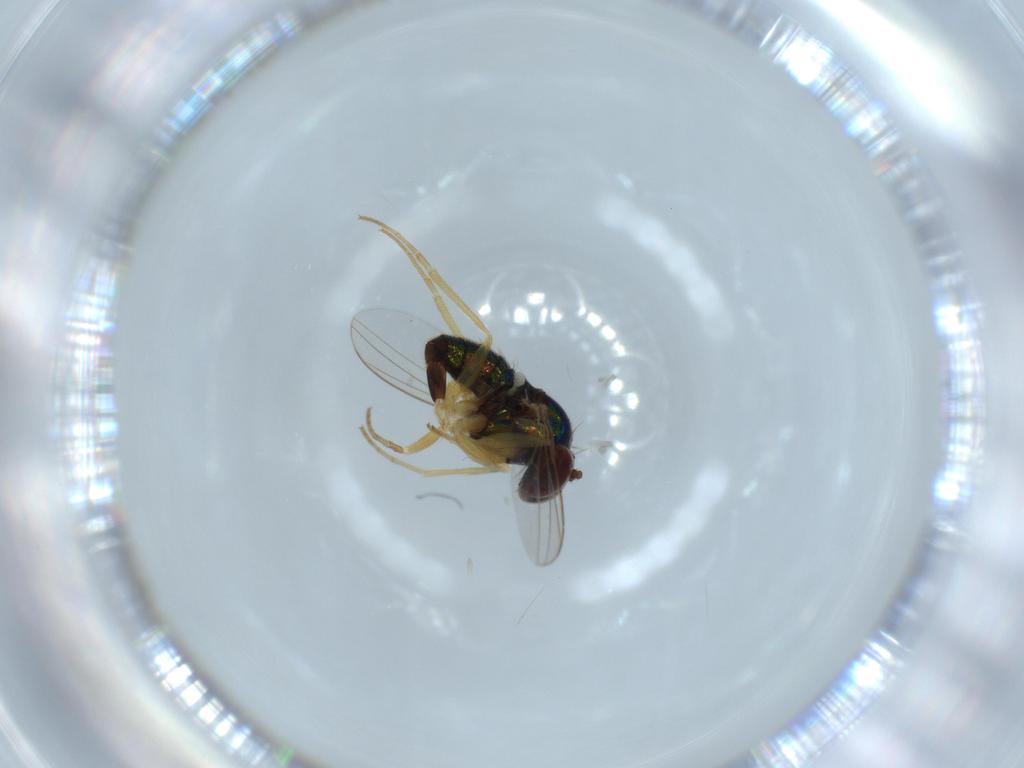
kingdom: Animalia
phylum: Arthropoda
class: Insecta
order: Diptera
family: Dolichopodidae
